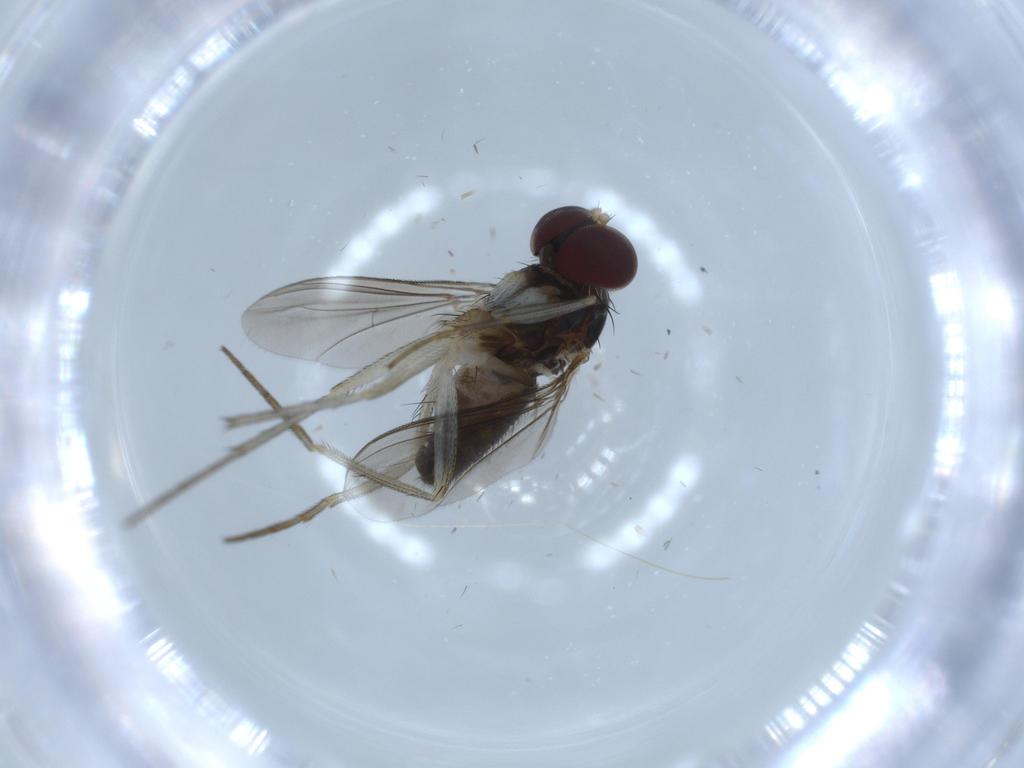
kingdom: Animalia
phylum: Arthropoda
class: Insecta
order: Diptera
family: Dolichopodidae
